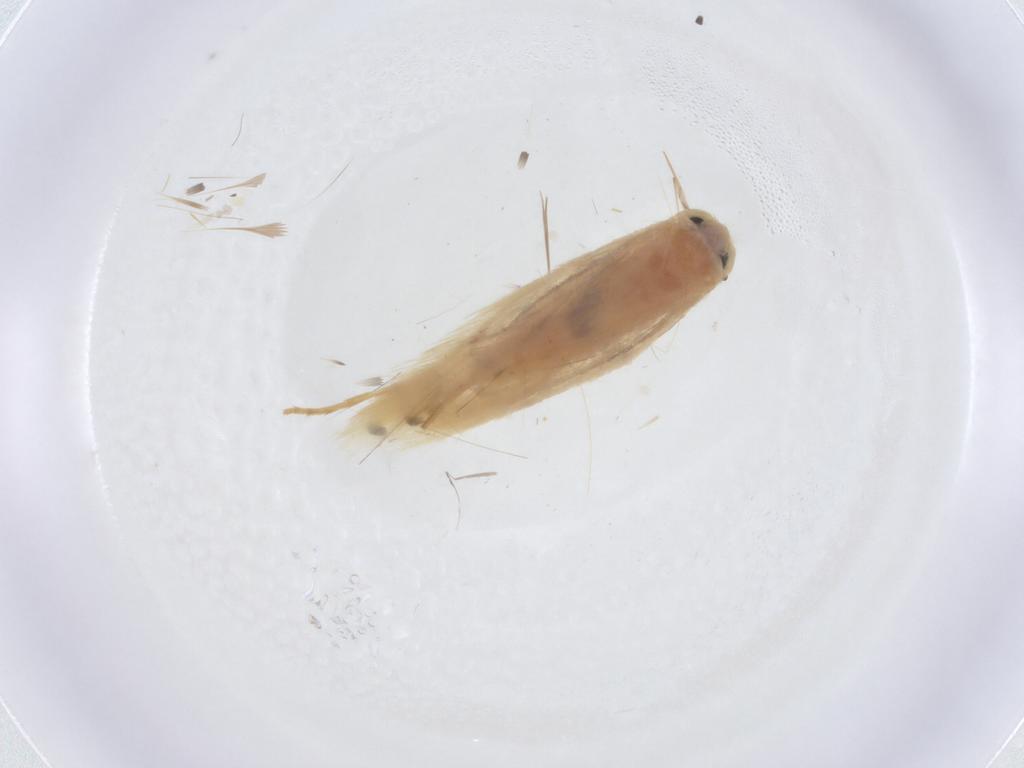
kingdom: Animalia
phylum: Arthropoda
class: Insecta
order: Lepidoptera
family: Gelechiidae
